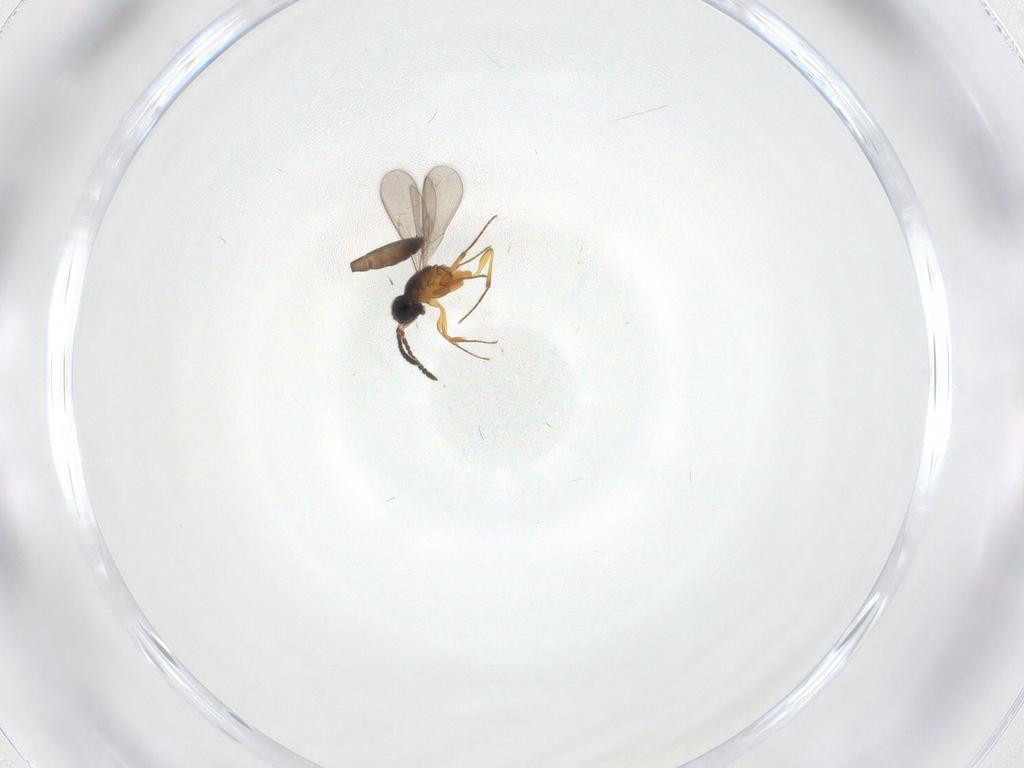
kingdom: Animalia
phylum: Arthropoda
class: Insecta
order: Hymenoptera
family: Scelionidae
